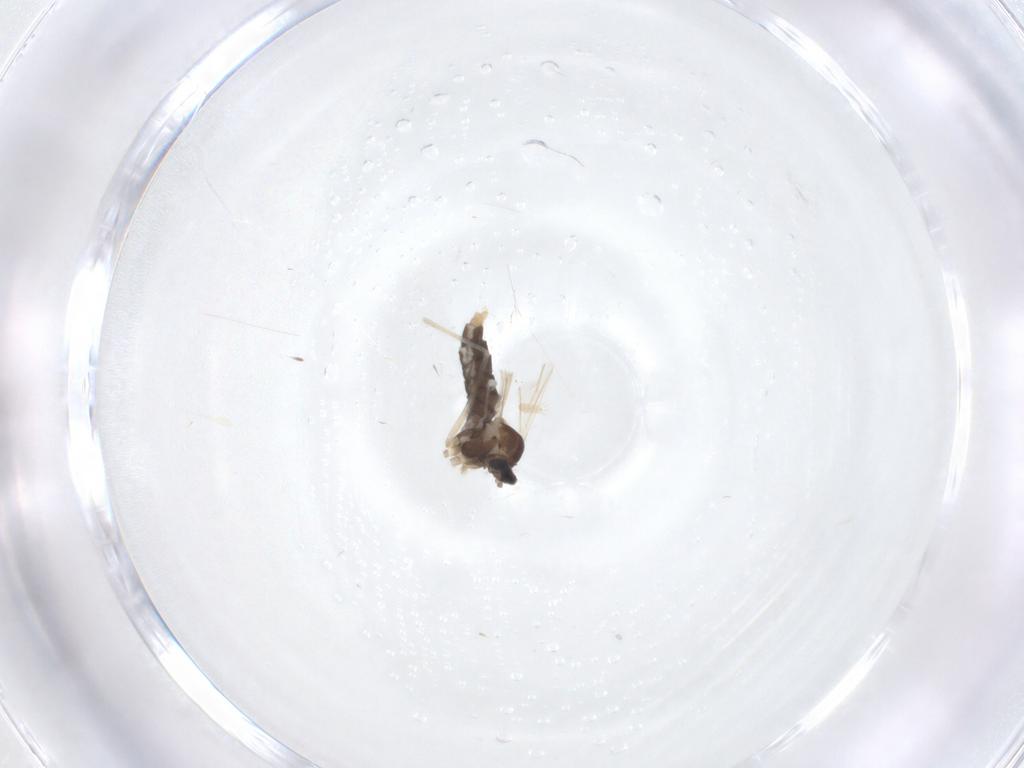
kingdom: Animalia
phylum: Arthropoda
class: Insecta
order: Diptera
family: Cecidomyiidae
